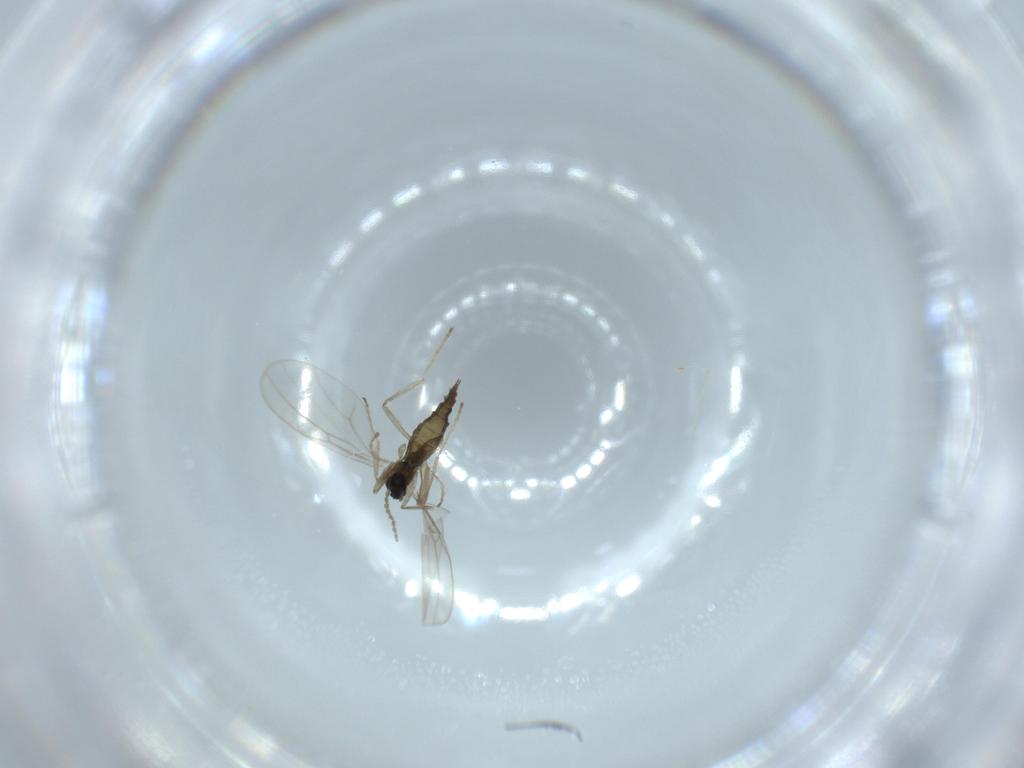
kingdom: Animalia
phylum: Arthropoda
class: Insecta
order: Diptera
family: Cecidomyiidae
